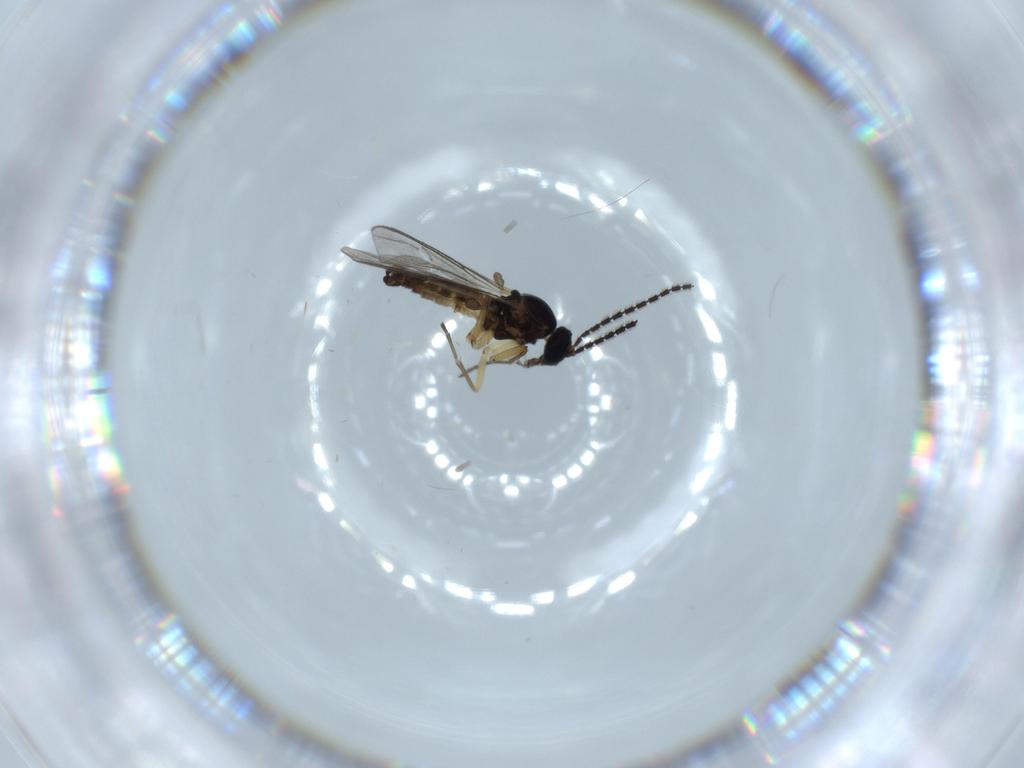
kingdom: Animalia
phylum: Arthropoda
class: Insecta
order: Diptera
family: Sciaridae
